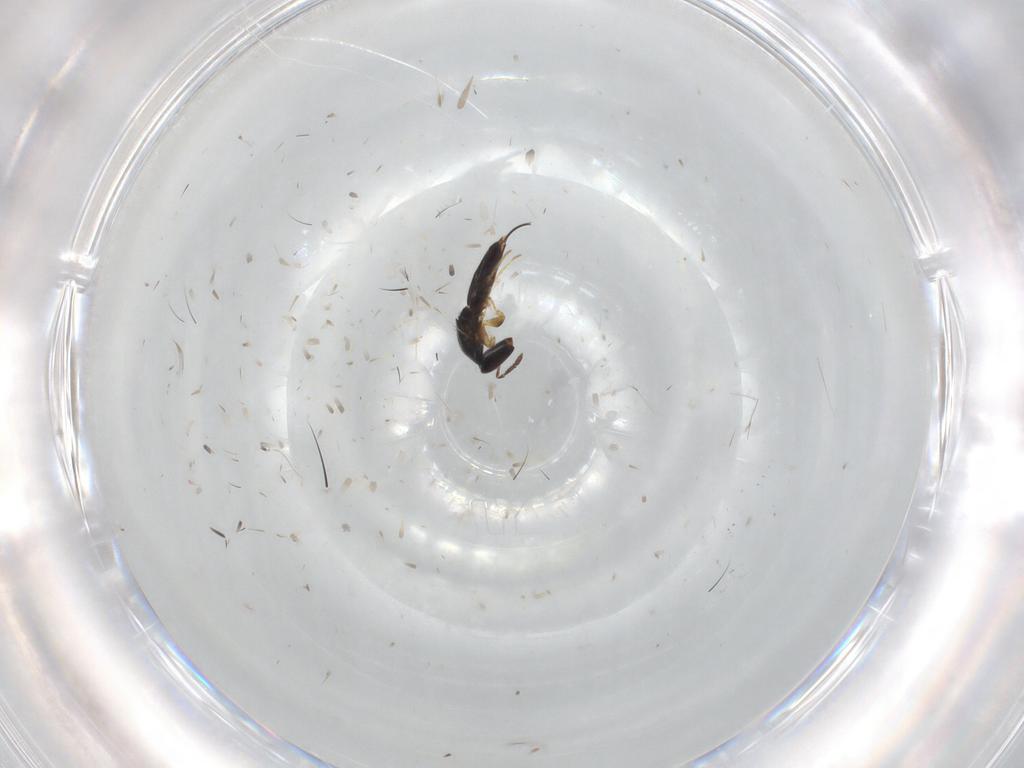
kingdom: Animalia
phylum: Arthropoda
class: Insecta
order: Hymenoptera
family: Agaonidae
